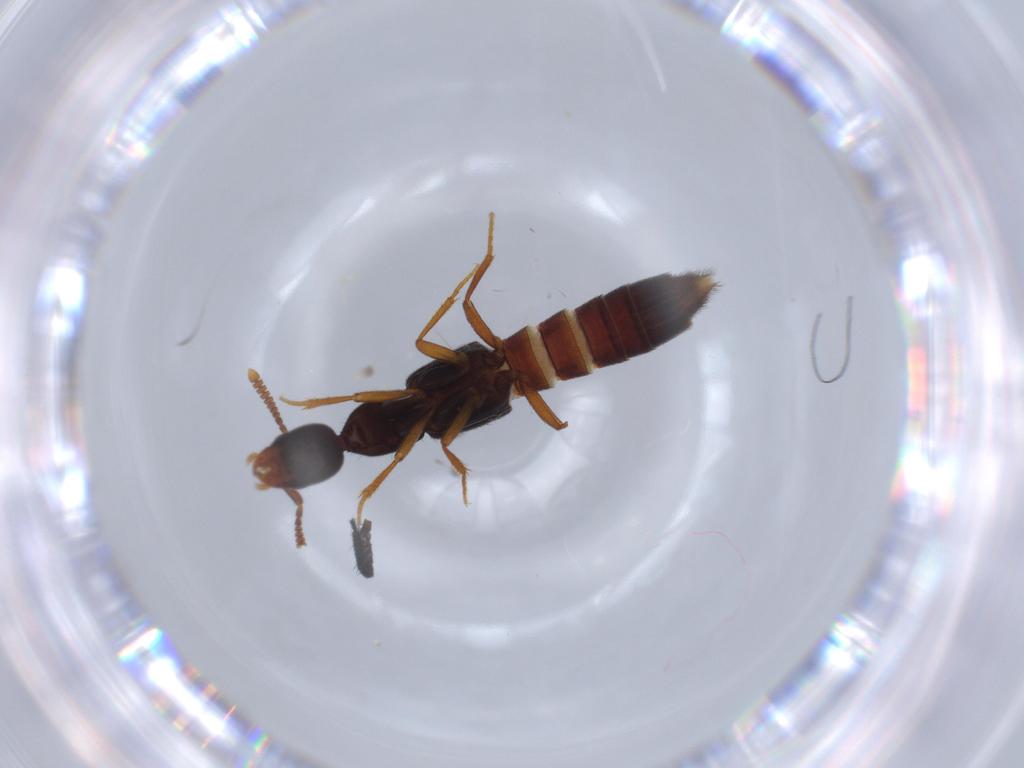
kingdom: Animalia
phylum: Arthropoda
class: Insecta
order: Coleoptera
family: Staphylinidae
